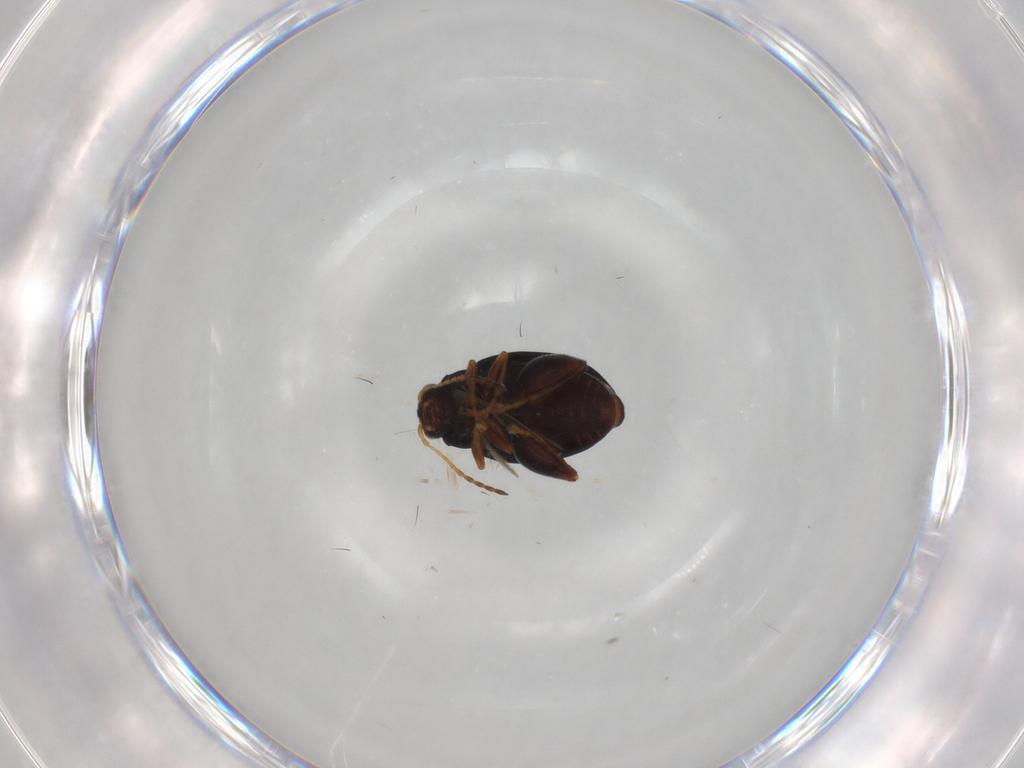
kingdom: Animalia
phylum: Arthropoda
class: Insecta
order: Coleoptera
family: Chrysomelidae
